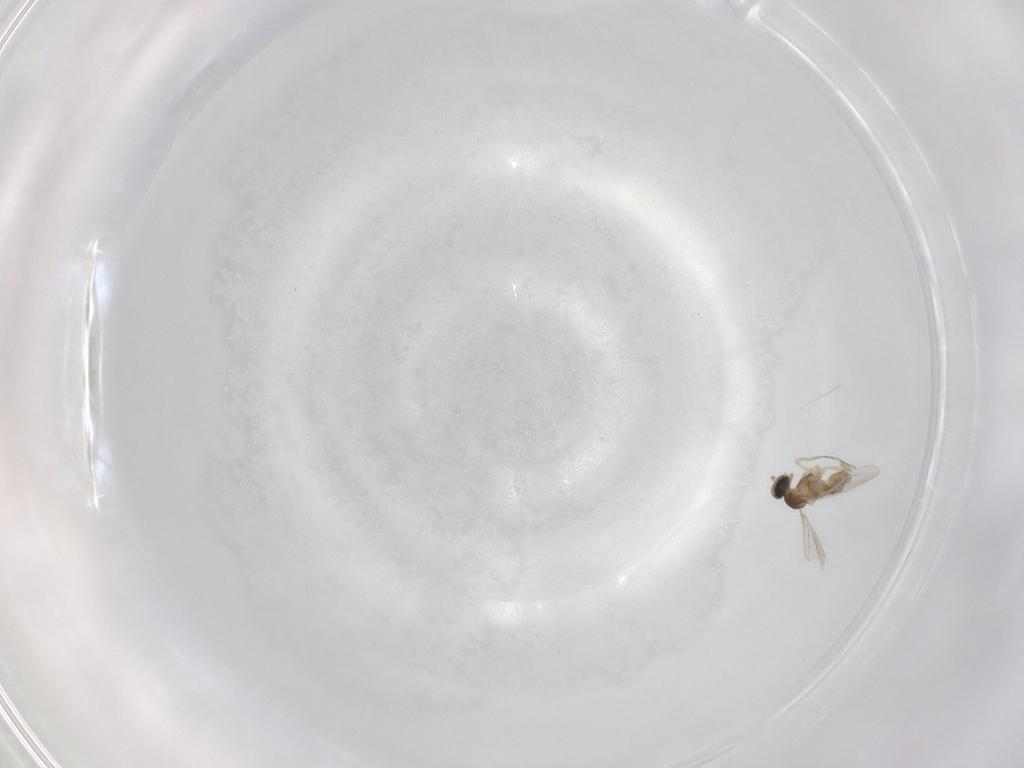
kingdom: Animalia
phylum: Arthropoda
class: Insecta
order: Diptera
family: Cecidomyiidae
